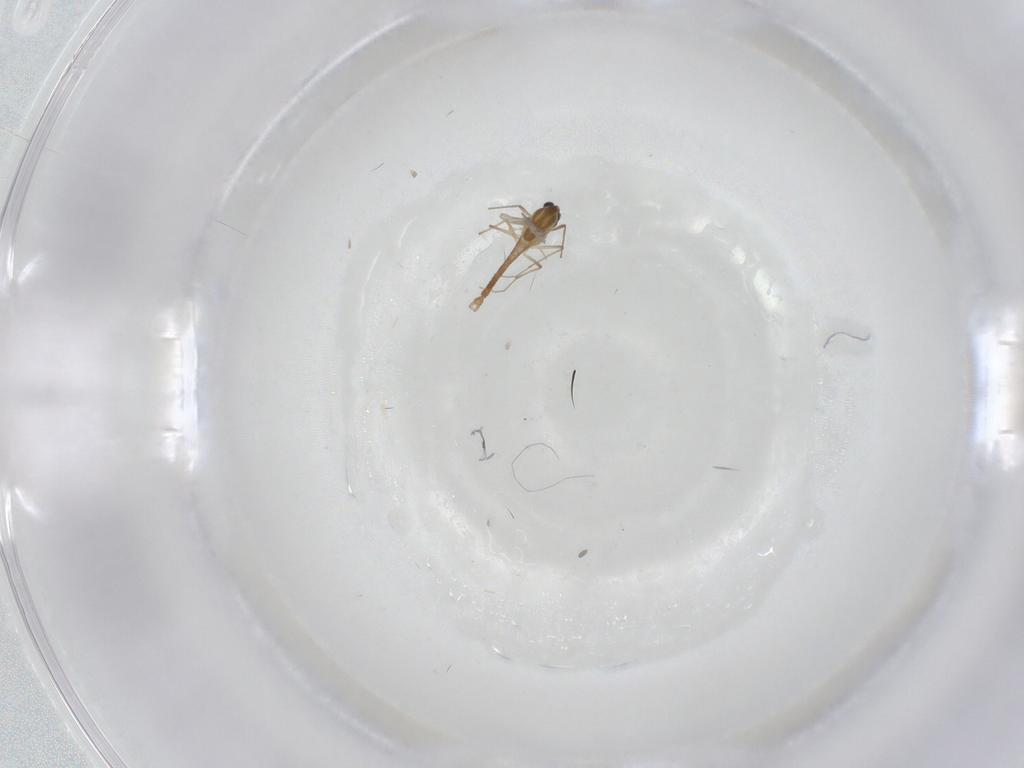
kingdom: Animalia
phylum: Arthropoda
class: Insecta
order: Diptera
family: Chironomidae
